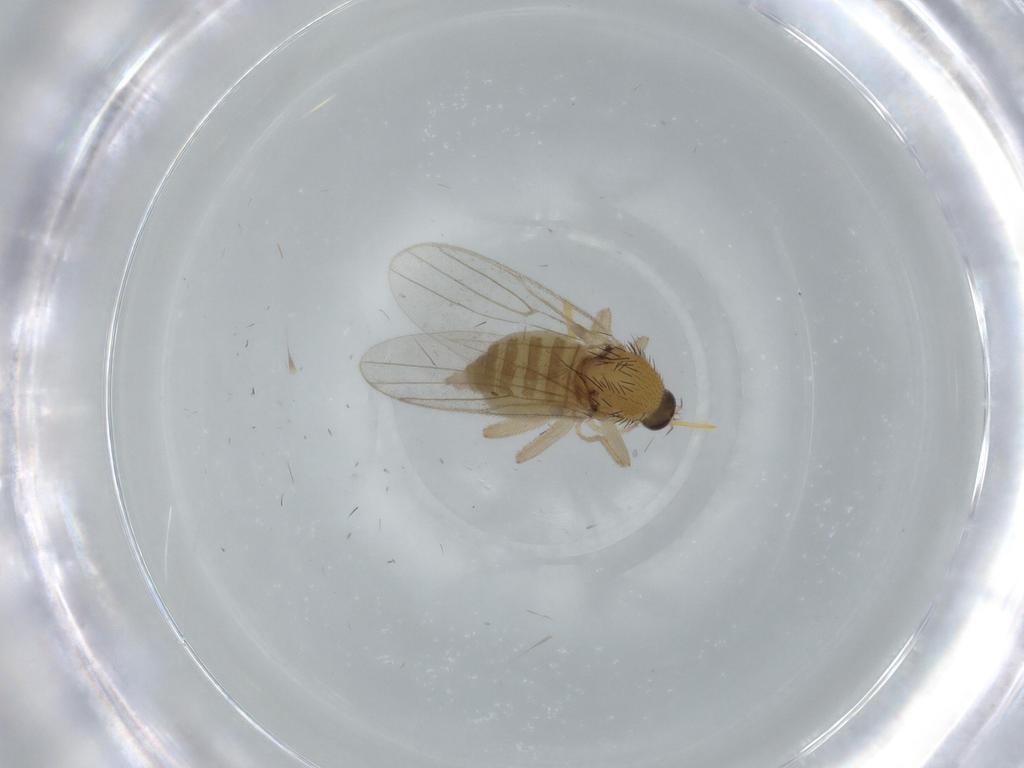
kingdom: Animalia
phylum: Arthropoda
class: Insecta
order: Diptera
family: Hybotidae
